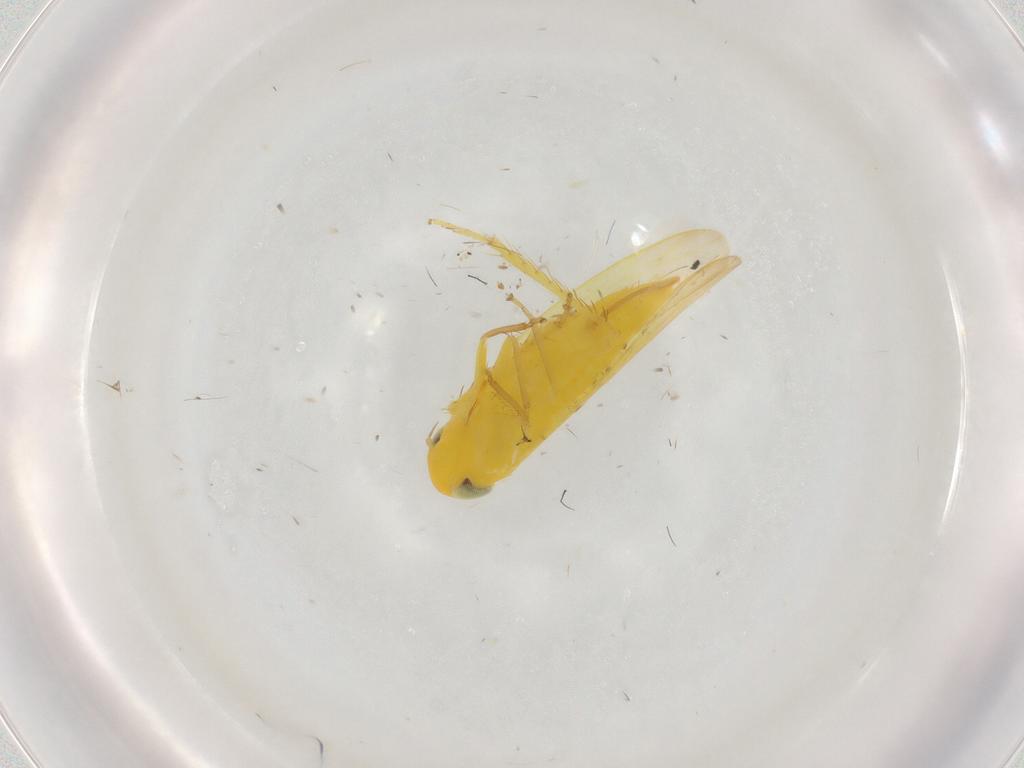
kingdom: Animalia
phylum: Arthropoda
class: Insecta
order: Hemiptera
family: Cicadellidae
